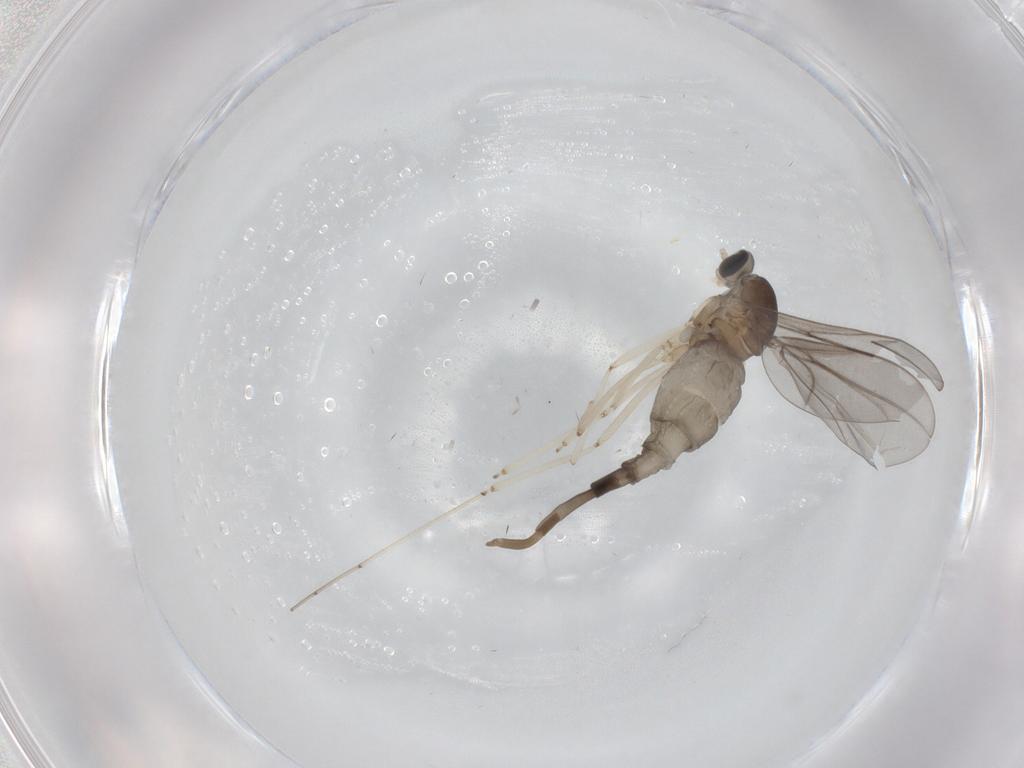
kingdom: Animalia
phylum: Arthropoda
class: Insecta
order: Diptera
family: Cecidomyiidae
